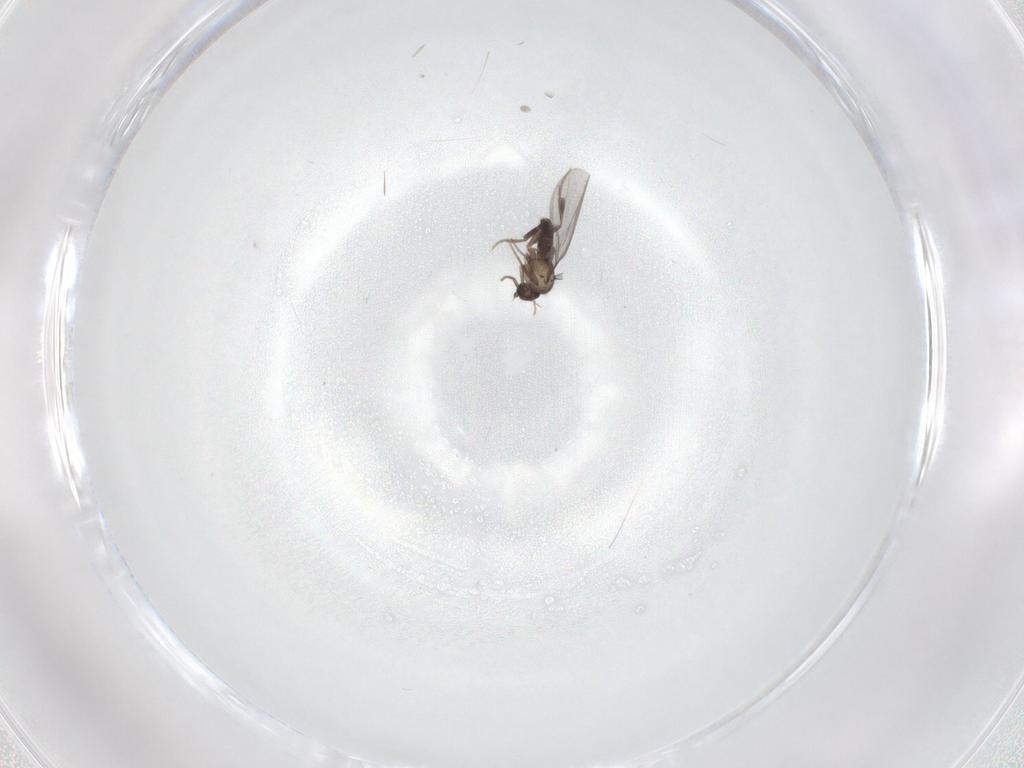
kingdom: Animalia
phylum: Arthropoda
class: Insecta
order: Diptera
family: Phoridae
